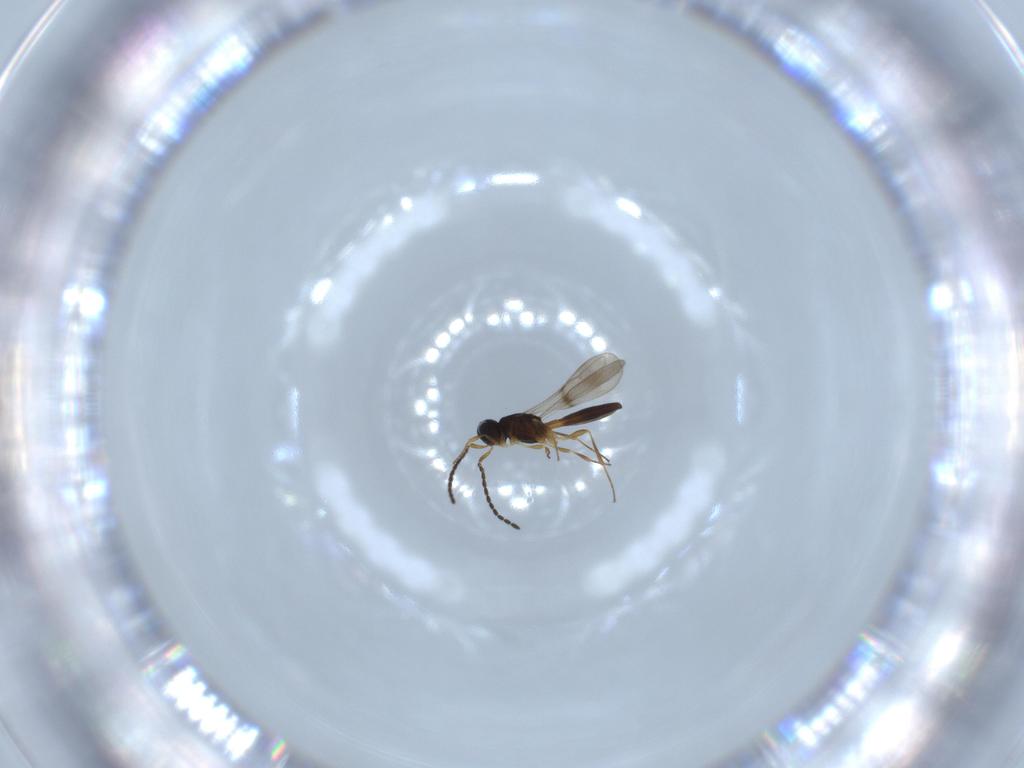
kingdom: Animalia
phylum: Arthropoda
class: Insecta
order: Hymenoptera
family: Scelionidae
